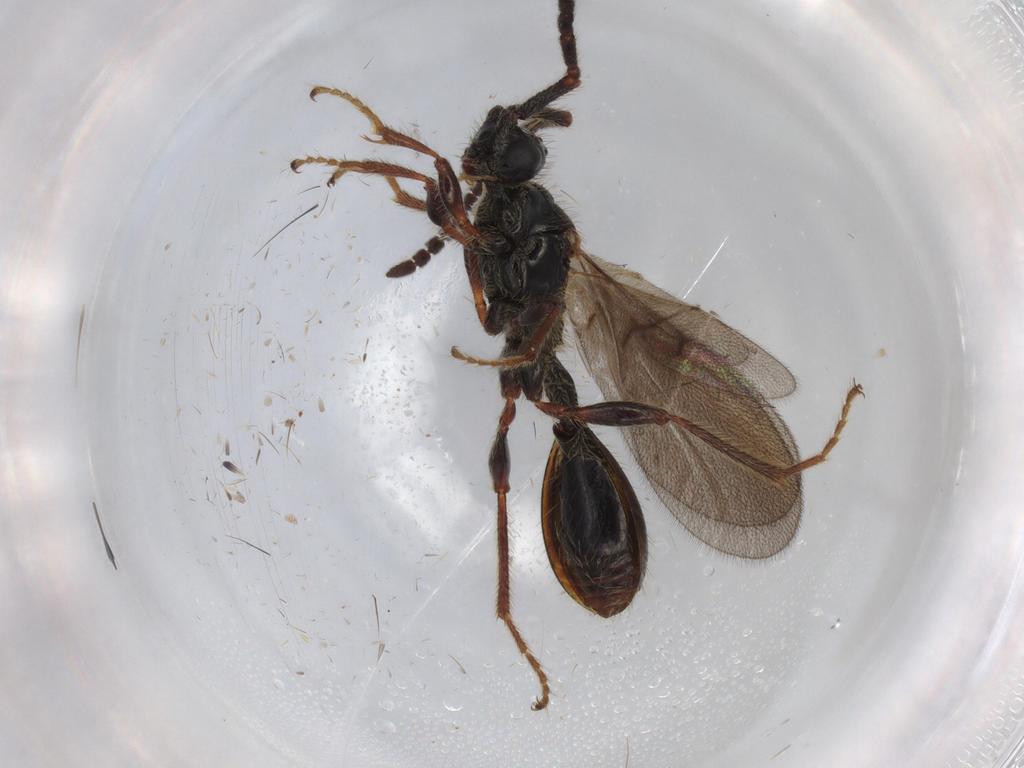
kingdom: Animalia
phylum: Arthropoda
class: Insecta
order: Hymenoptera
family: Diapriidae
